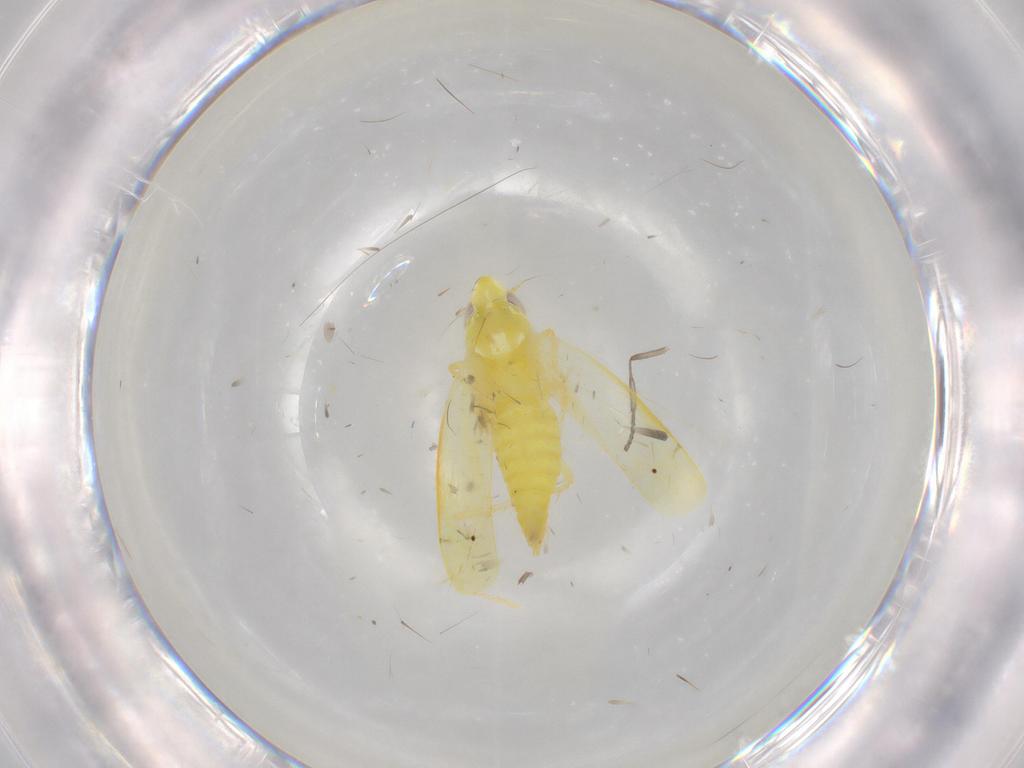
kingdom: Animalia
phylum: Arthropoda
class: Insecta
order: Hemiptera
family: Cicadellidae
